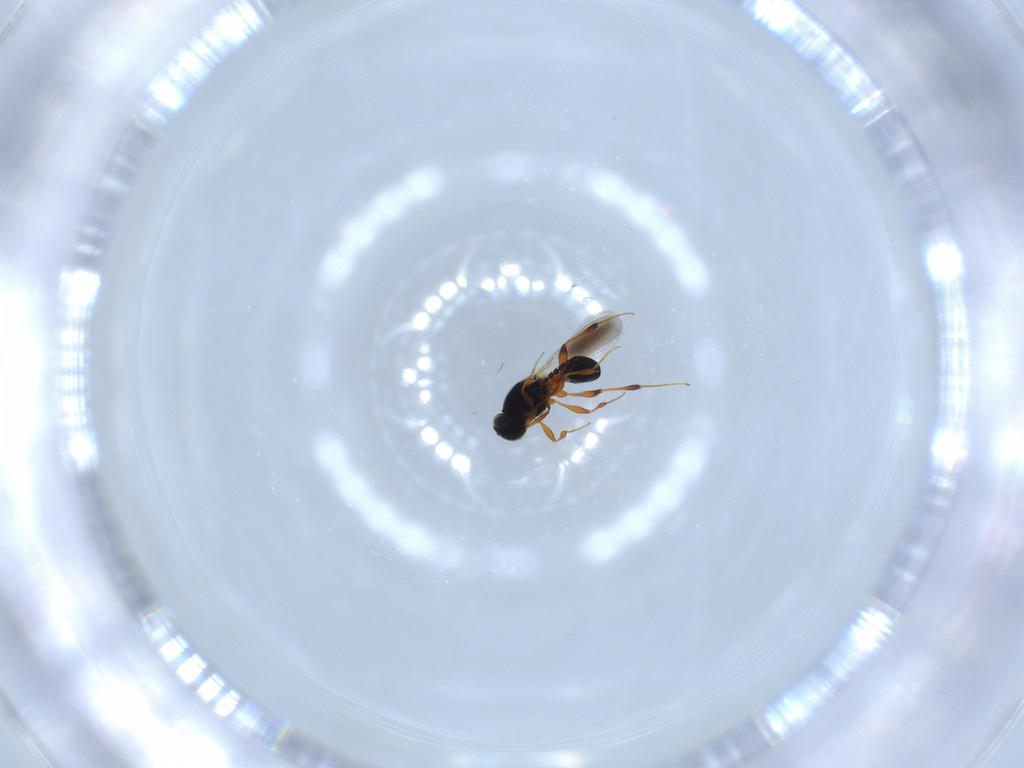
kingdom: Animalia
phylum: Arthropoda
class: Insecta
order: Hymenoptera
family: Platygastridae
